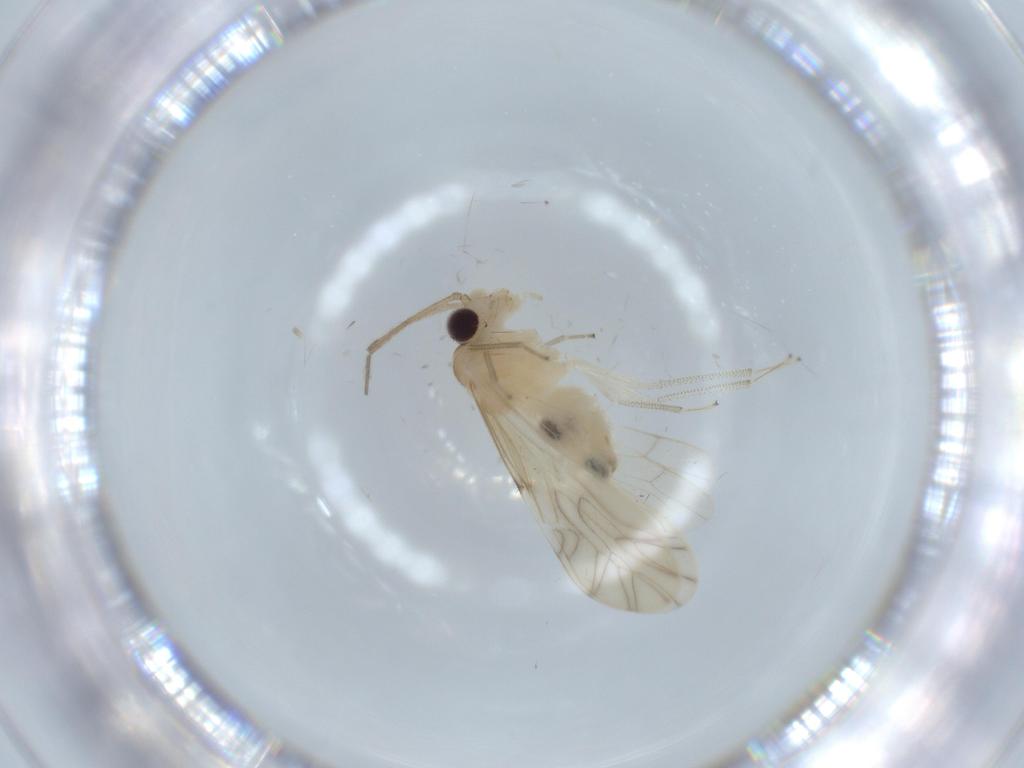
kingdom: Animalia
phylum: Arthropoda
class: Insecta
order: Psocodea
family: Caeciliusidae
